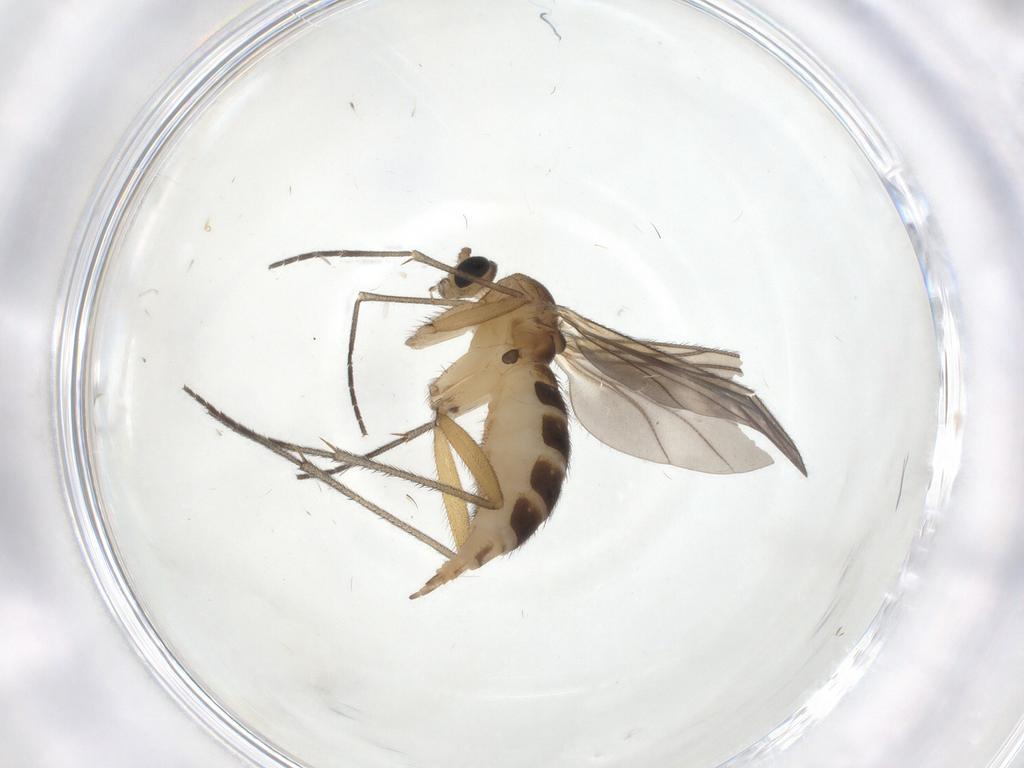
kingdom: Animalia
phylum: Arthropoda
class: Insecta
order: Diptera
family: Sciaridae
